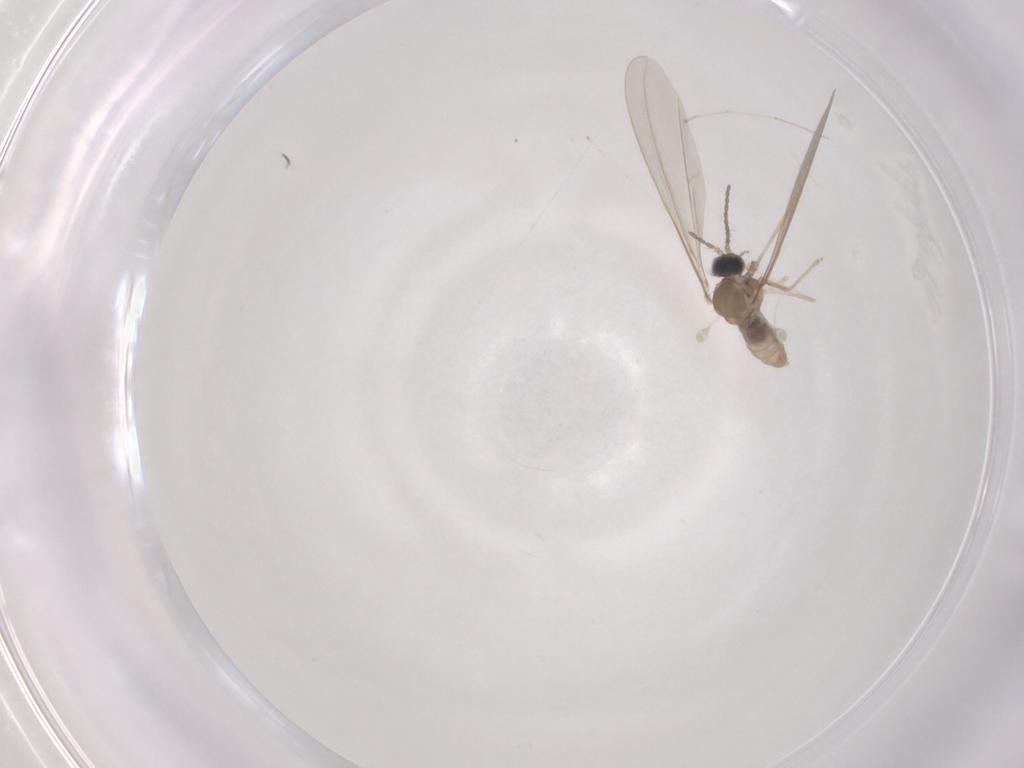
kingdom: Animalia
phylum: Arthropoda
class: Insecta
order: Diptera
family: Cecidomyiidae
